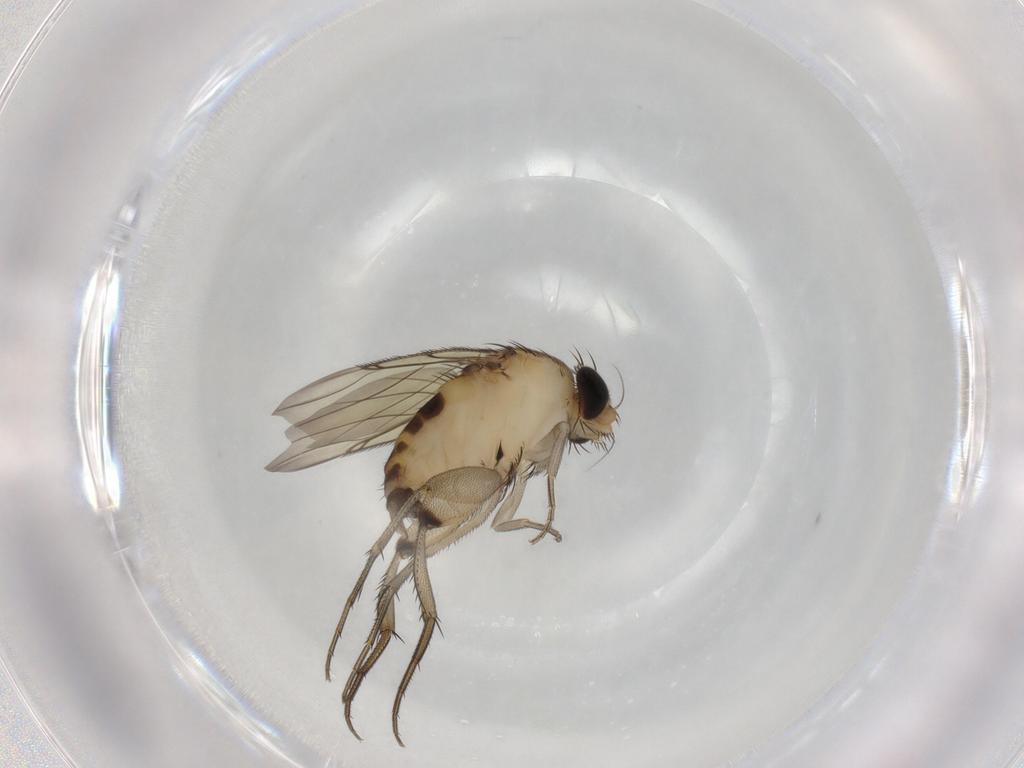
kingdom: Animalia
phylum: Arthropoda
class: Insecta
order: Diptera
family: Phoridae
